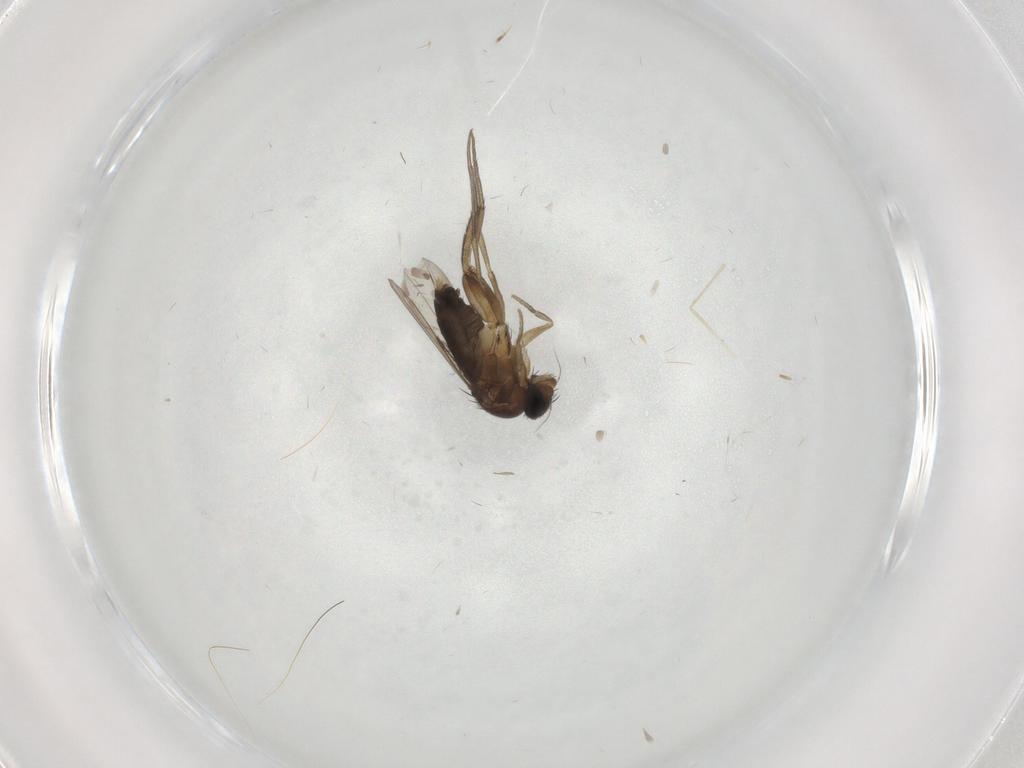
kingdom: Animalia
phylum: Arthropoda
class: Insecta
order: Diptera
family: Phoridae
